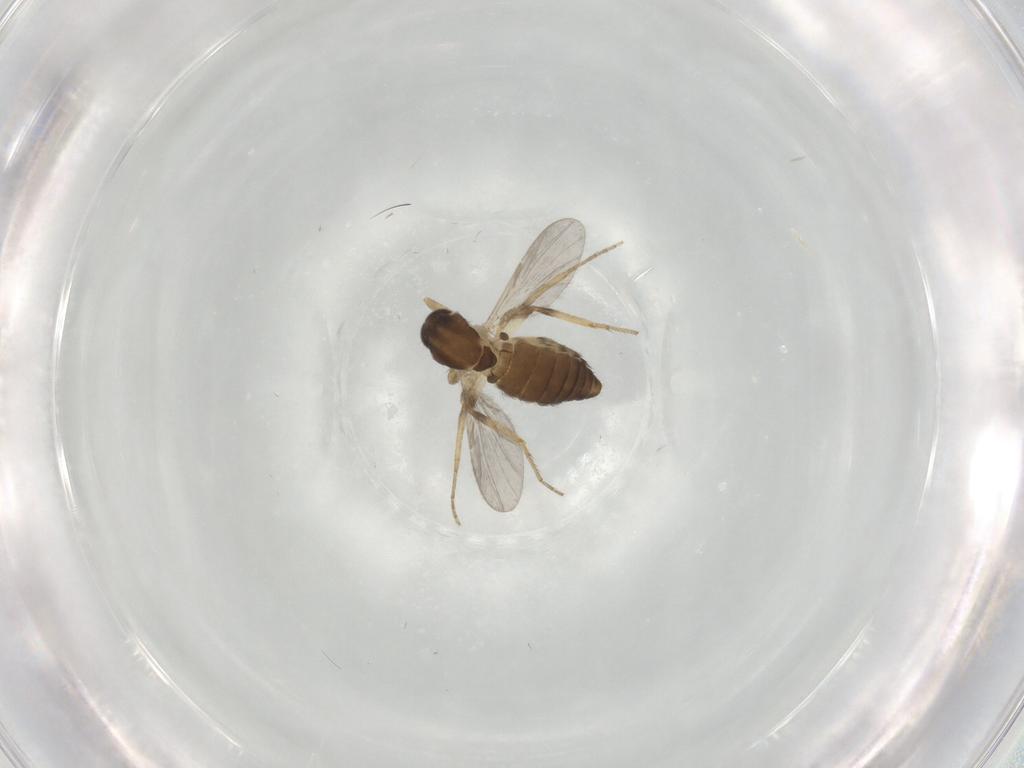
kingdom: Animalia
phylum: Arthropoda
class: Insecta
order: Diptera
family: Ceratopogonidae
